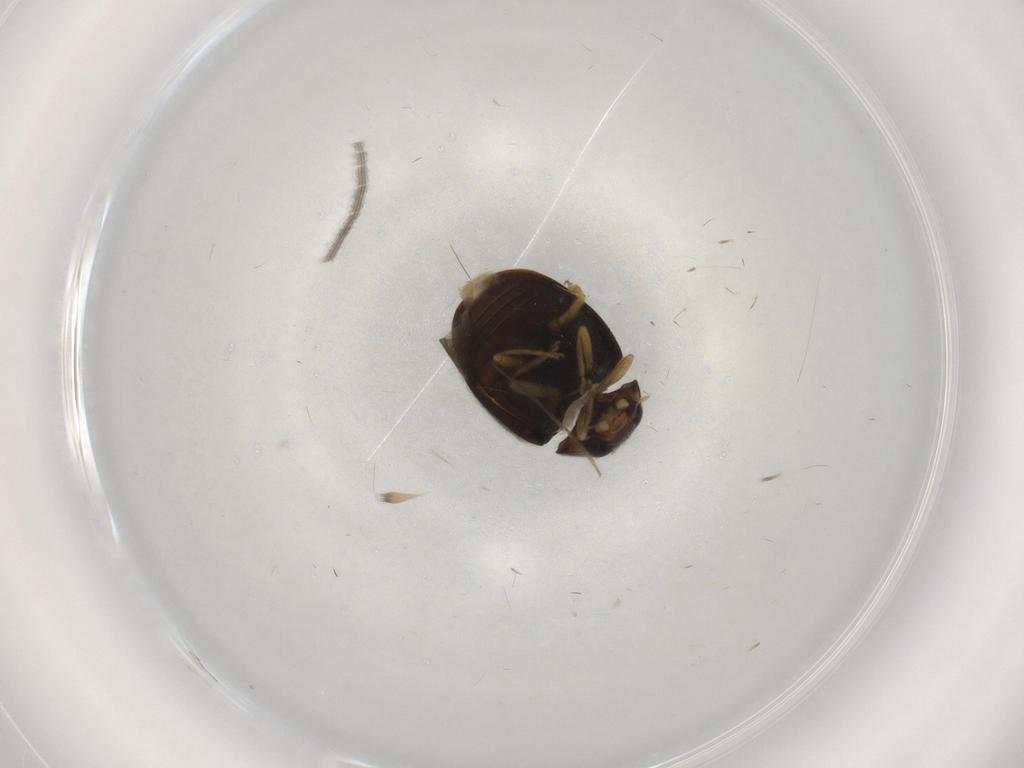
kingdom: Animalia
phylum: Arthropoda
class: Insecta
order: Coleoptera
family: Coccinellidae
